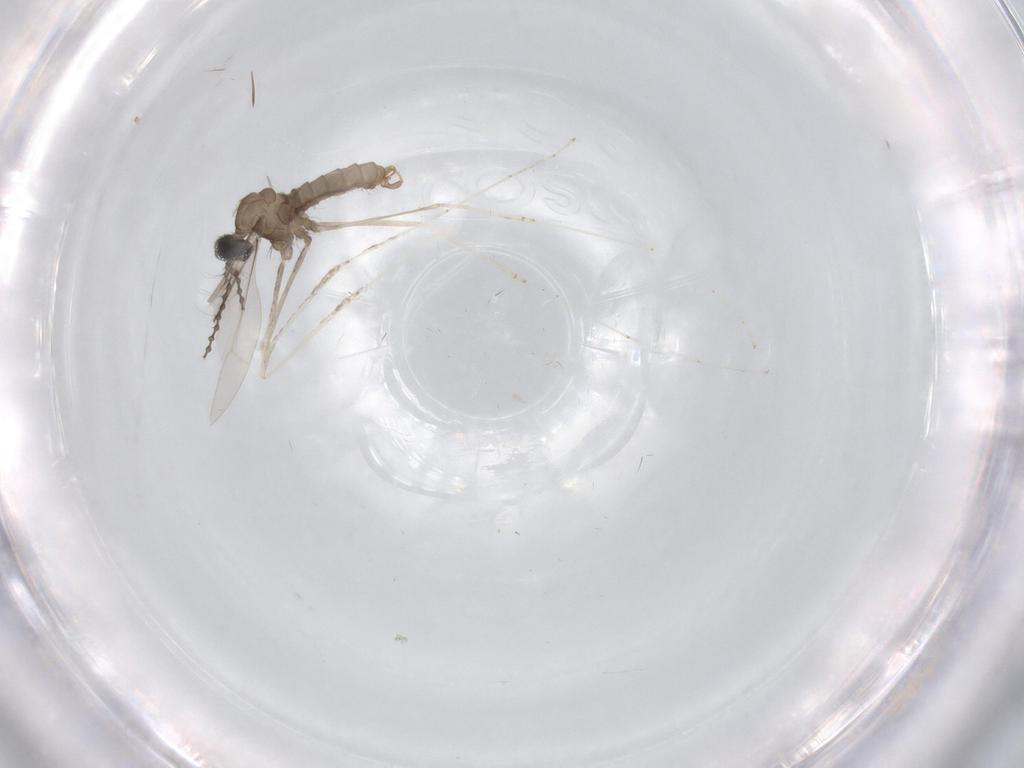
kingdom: Animalia
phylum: Arthropoda
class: Insecta
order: Diptera
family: Cecidomyiidae
